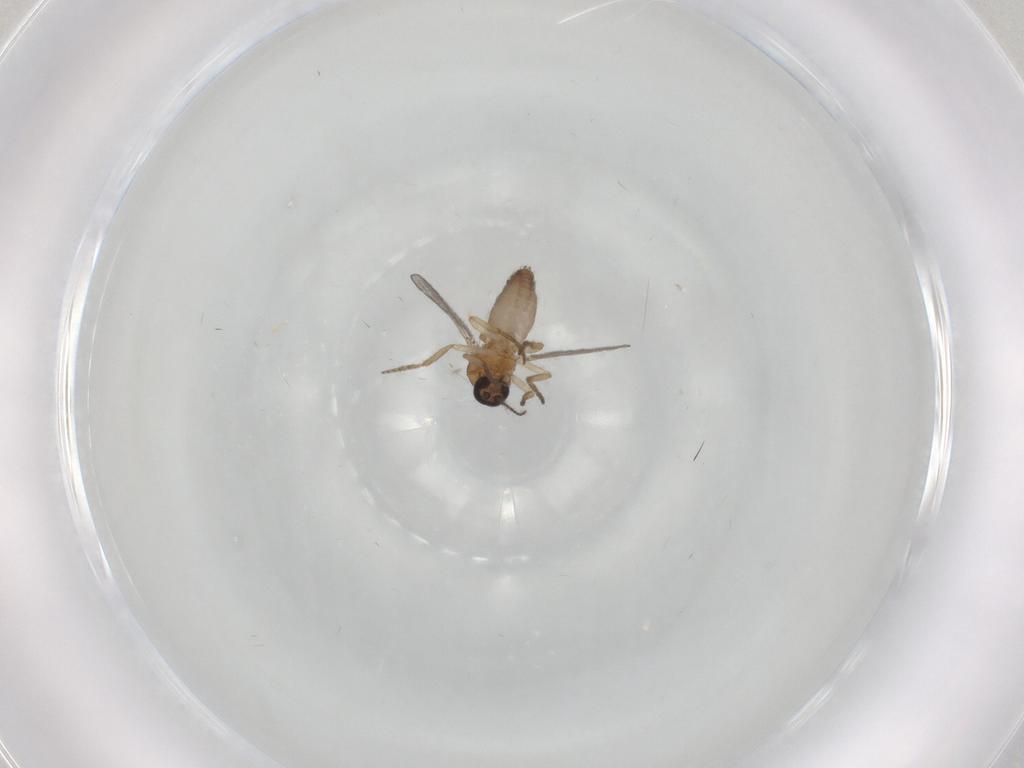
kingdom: Animalia
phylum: Arthropoda
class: Insecta
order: Diptera
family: Ceratopogonidae
